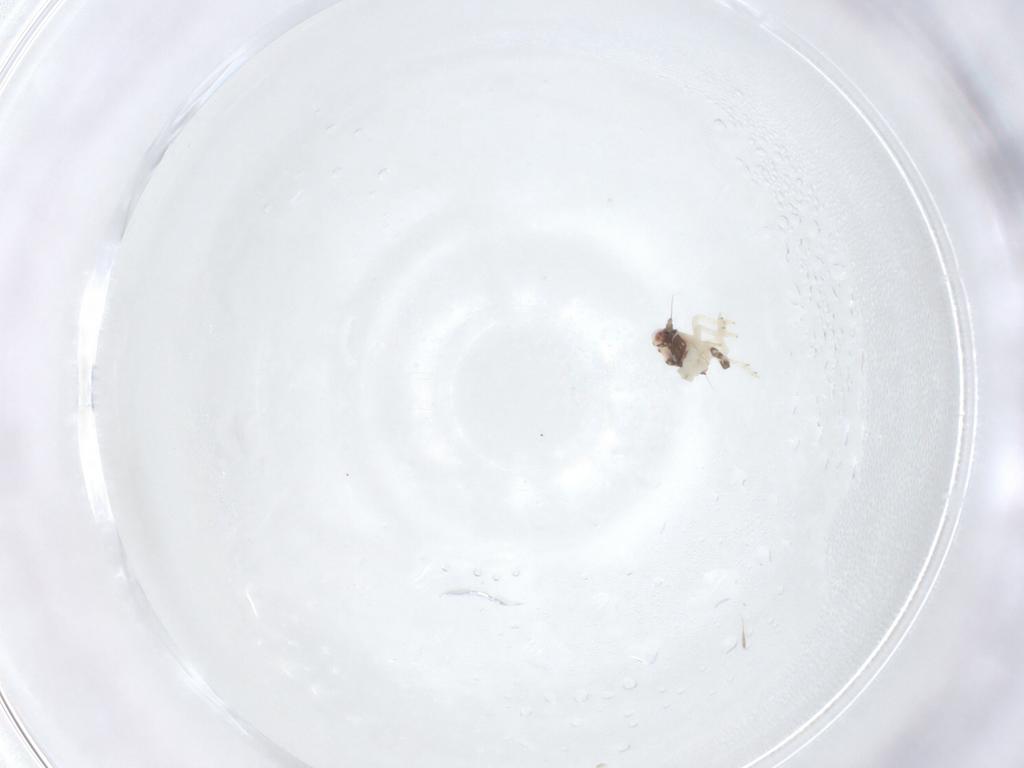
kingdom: Animalia
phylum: Arthropoda
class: Insecta
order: Hemiptera
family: Nogodinidae
